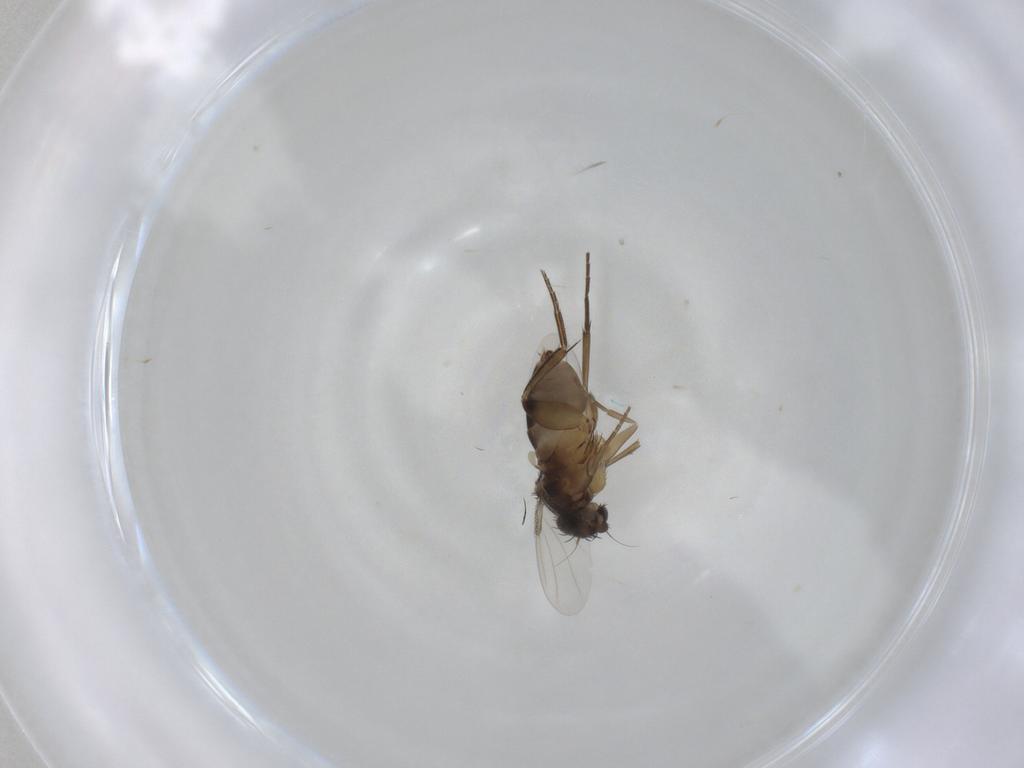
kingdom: Animalia
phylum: Arthropoda
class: Insecta
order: Diptera
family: Phoridae
